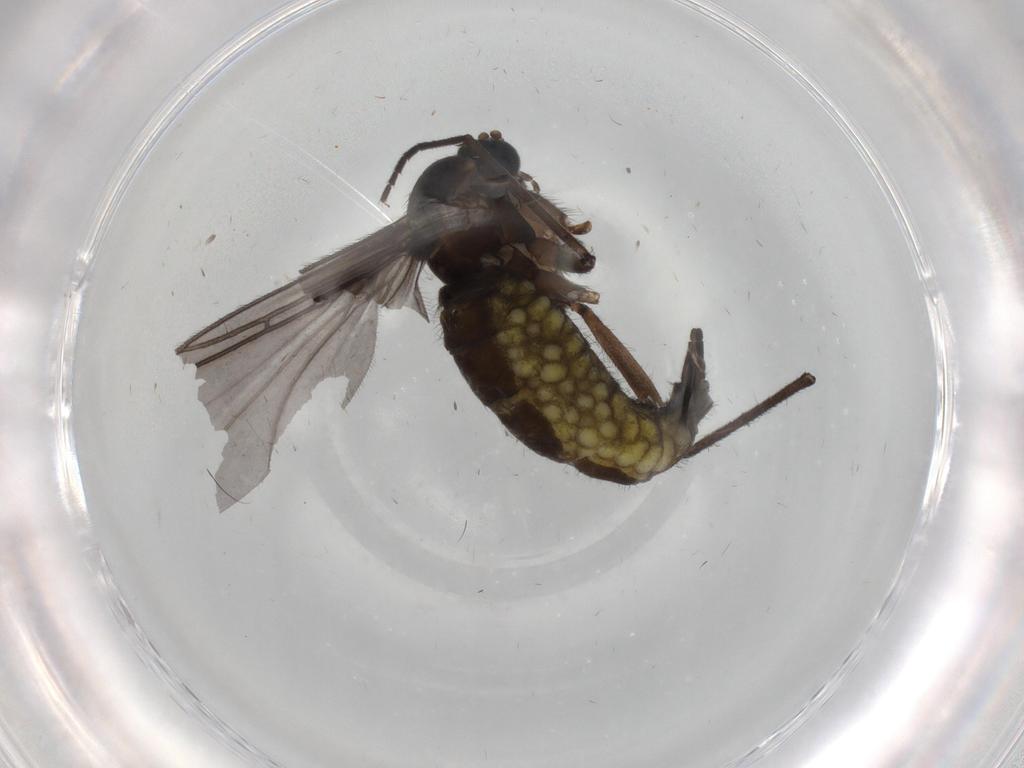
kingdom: Animalia
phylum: Arthropoda
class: Insecta
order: Diptera
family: Sciaridae
